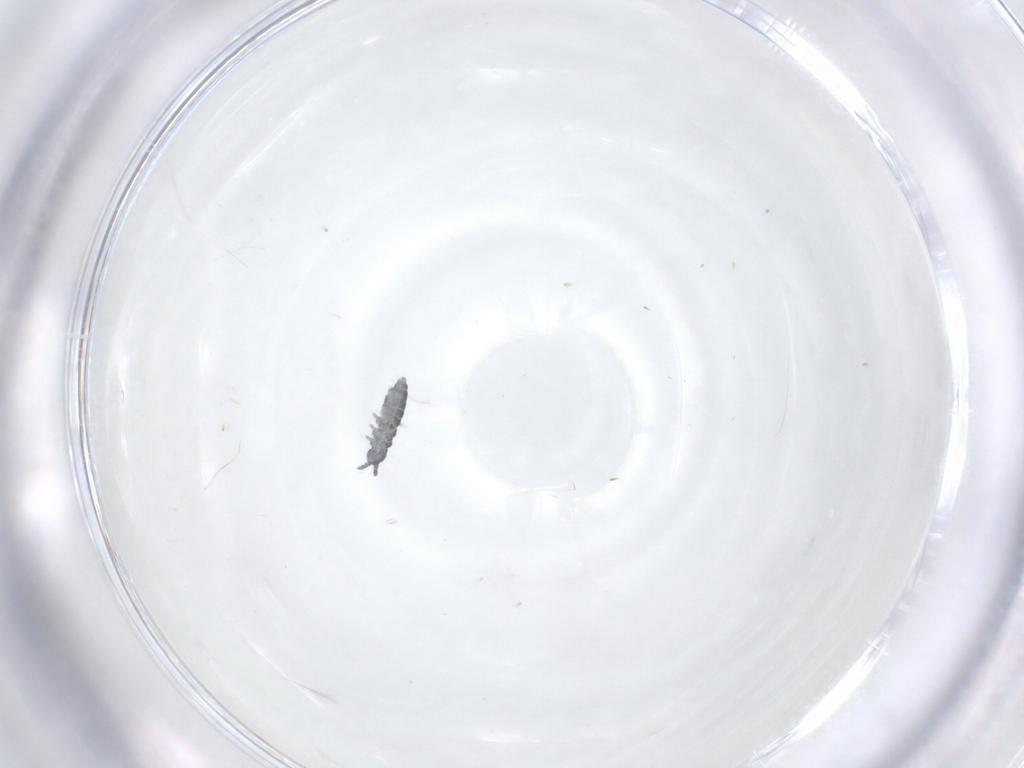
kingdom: Animalia
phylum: Arthropoda
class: Collembola
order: Poduromorpha
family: Hypogastruridae
